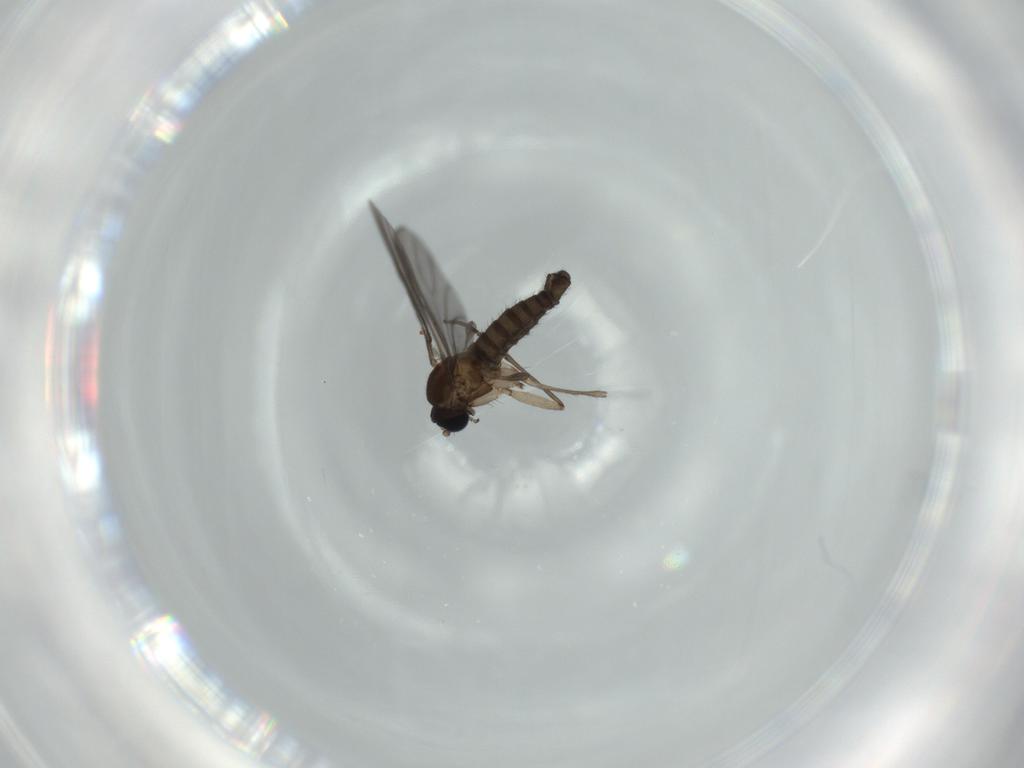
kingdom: Animalia
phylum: Arthropoda
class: Insecta
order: Diptera
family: Sciaridae
